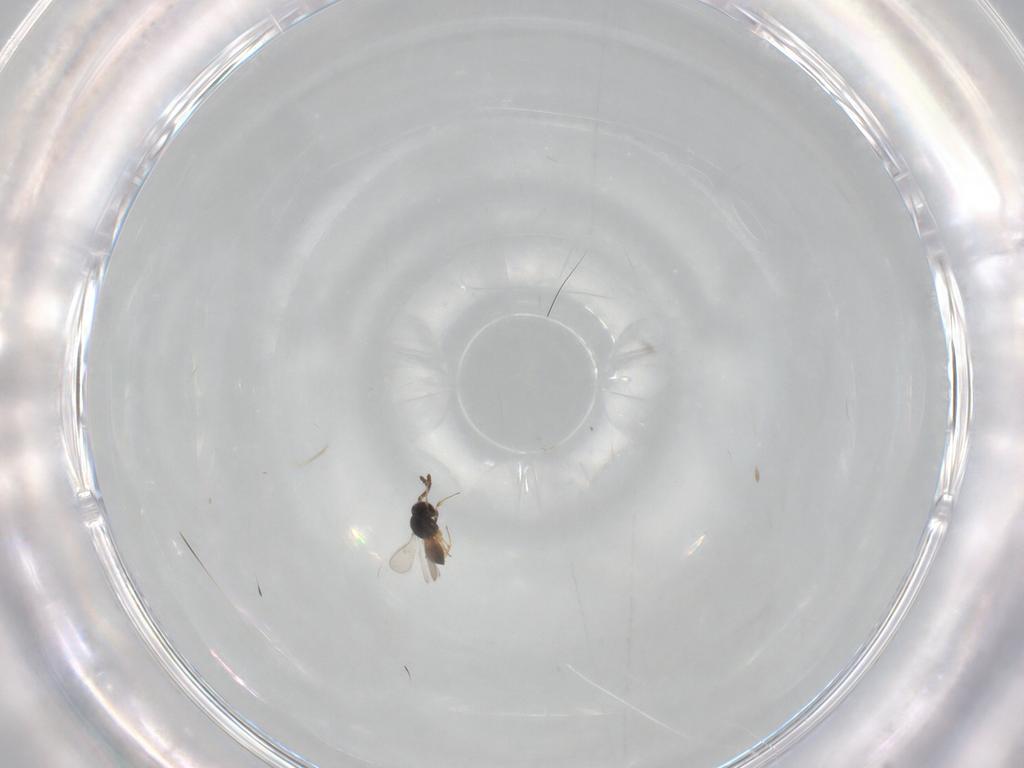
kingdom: Animalia
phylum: Arthropoda
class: Insecta
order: Hymenoptera
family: Scelionidae
